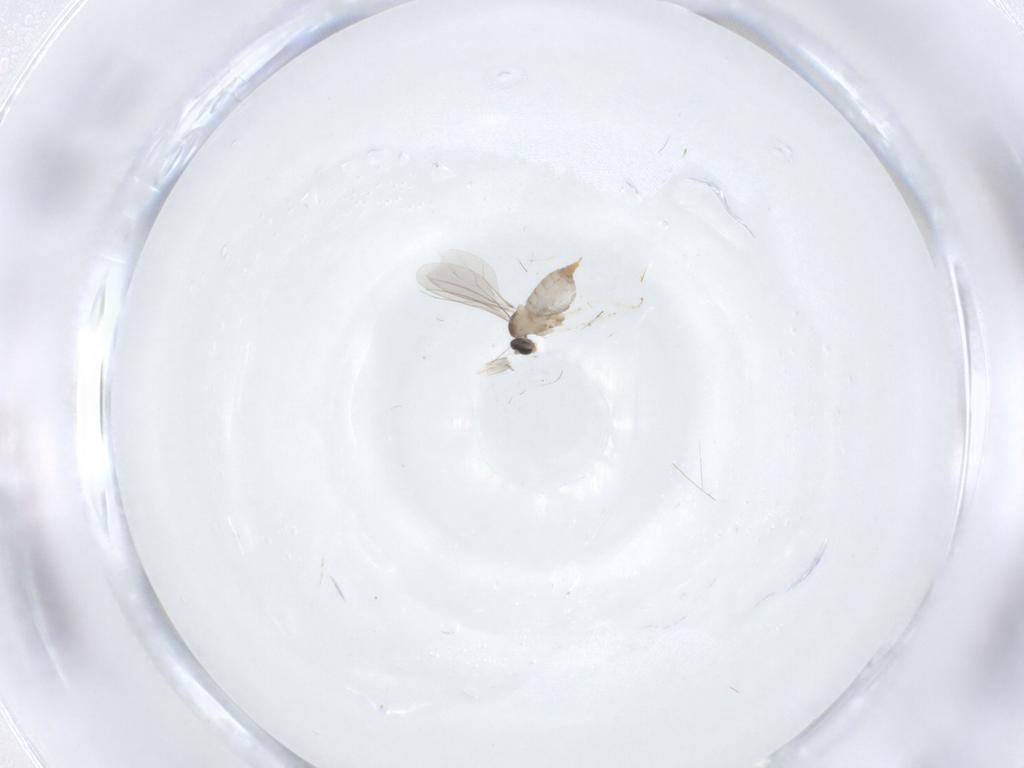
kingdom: Animalia
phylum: Arthropoda
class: Insecta
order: Diptera
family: Cecidomyiidae
